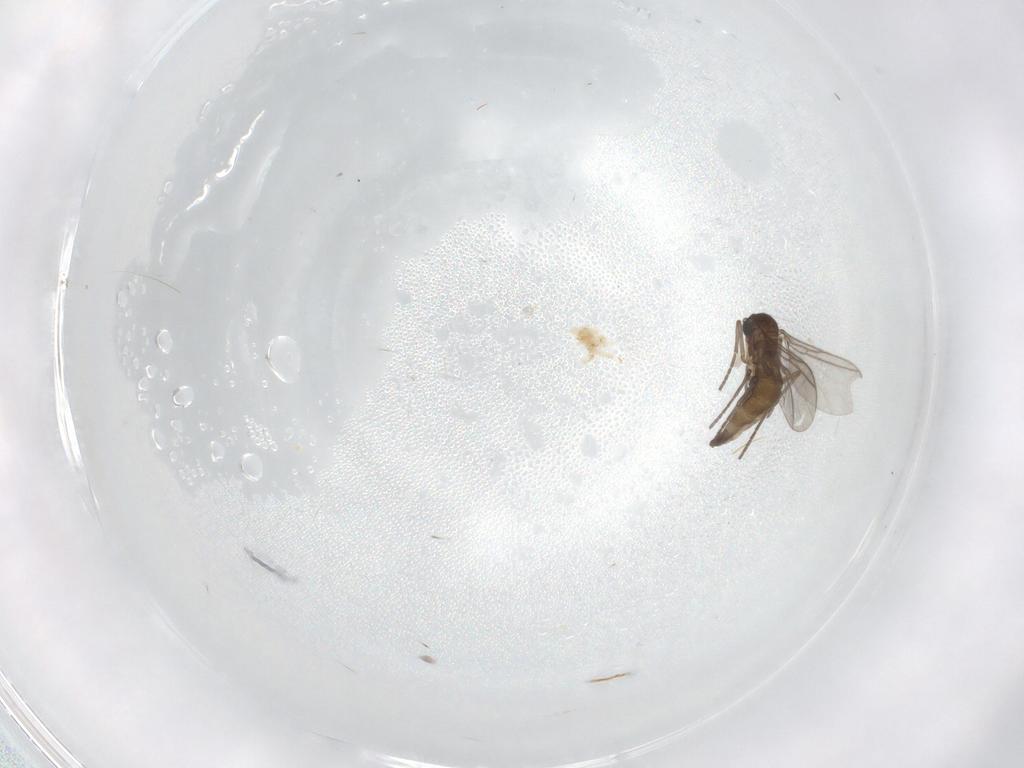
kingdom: Animalia
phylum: Arthropoda
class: Insecta
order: Diptera
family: Cecidomyiidae
